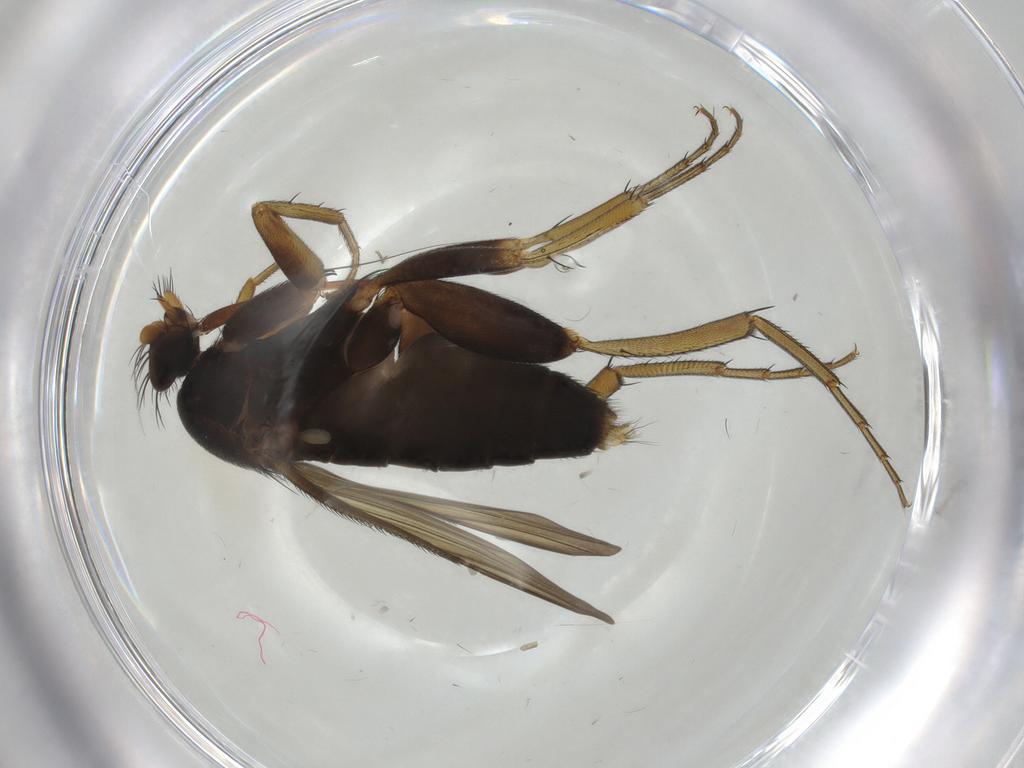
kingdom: Animalia
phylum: Arthropoda
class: Insecta
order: Diptera
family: Phoridae
